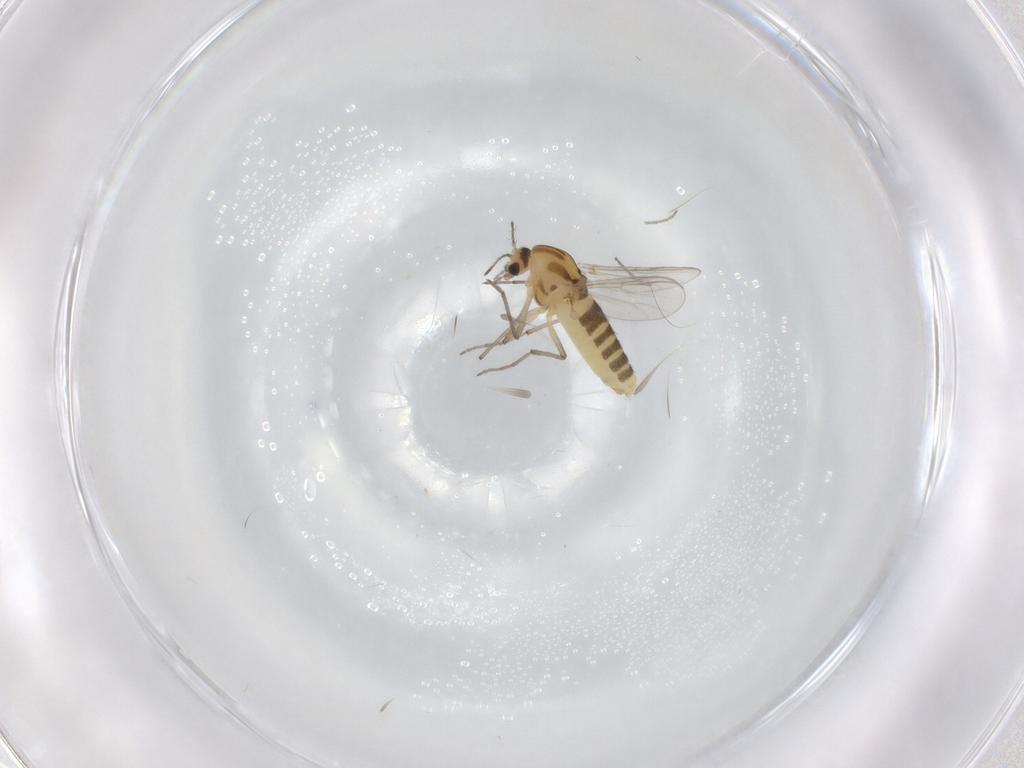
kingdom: Animalia
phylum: Arthropoda
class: Insecta
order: Diptera
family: Chironomidae
